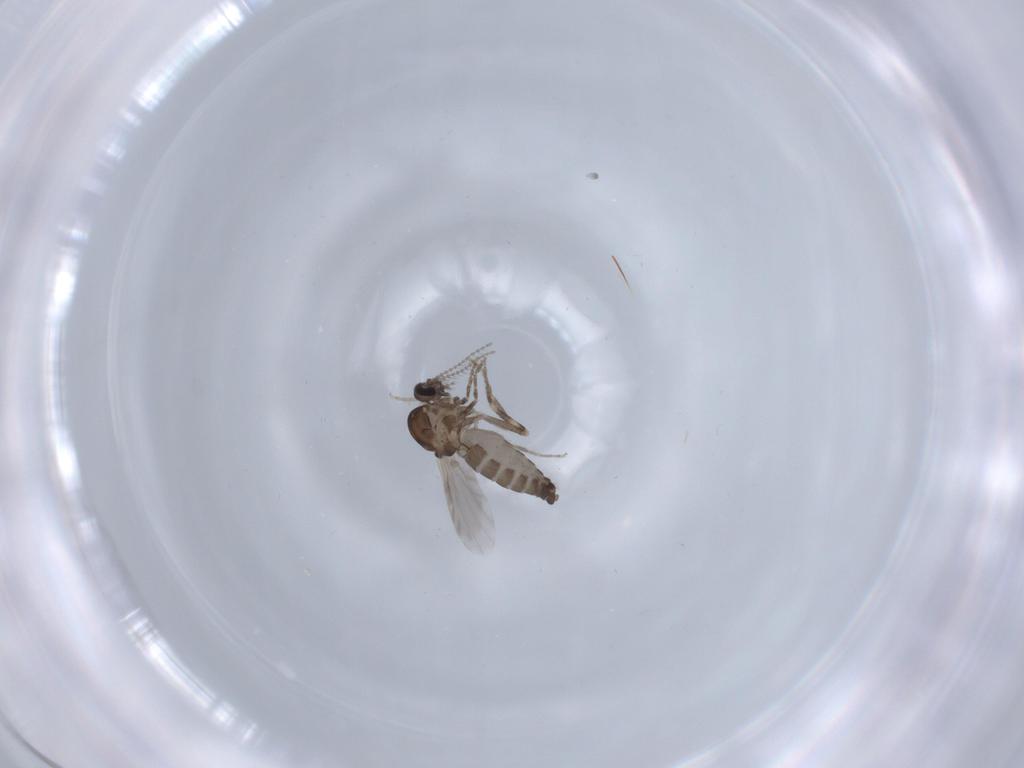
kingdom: Animalia
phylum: Arthropoda
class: Insecta
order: Diptera
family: Ceratopogonidae
